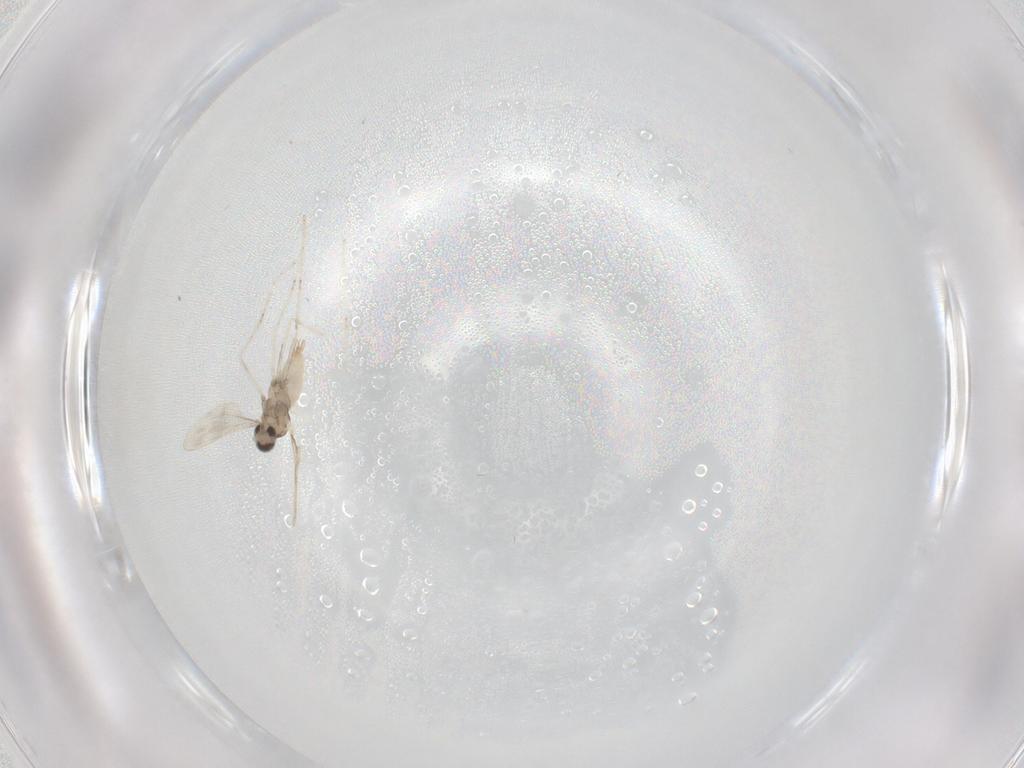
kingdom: Animalia
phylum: Arthropoda
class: Insecta
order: Diptera
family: Cecidomyiidae
